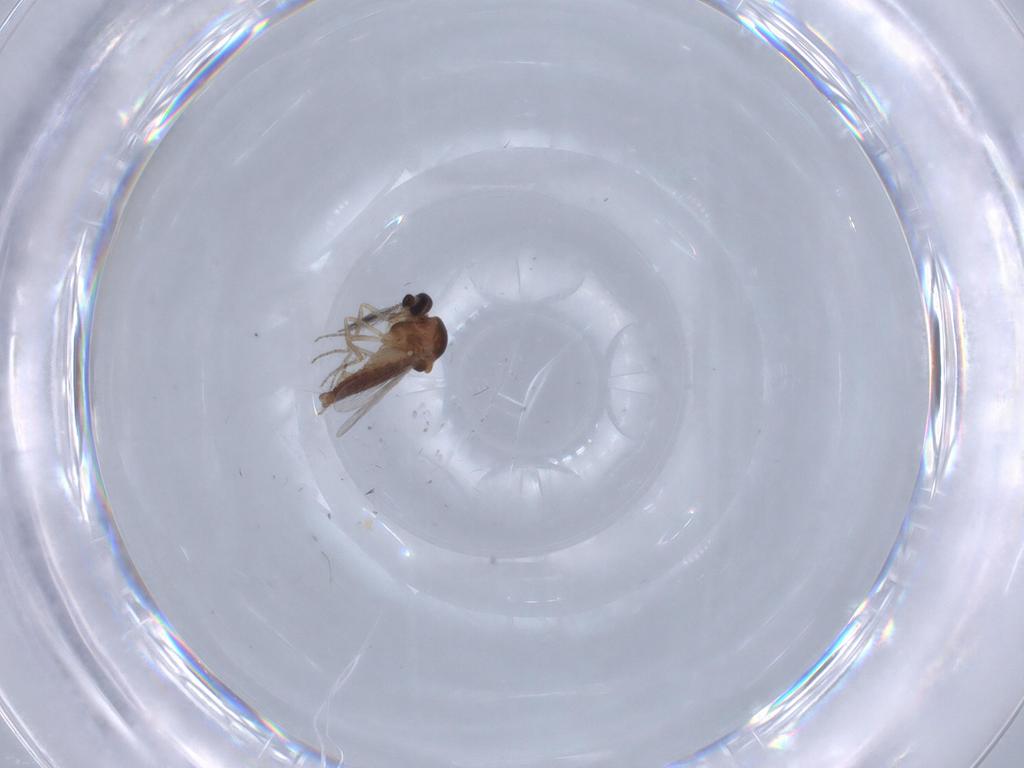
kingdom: Animalia
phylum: Arthropoda
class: Insecta
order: Diptera
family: Ceratopogonidae
